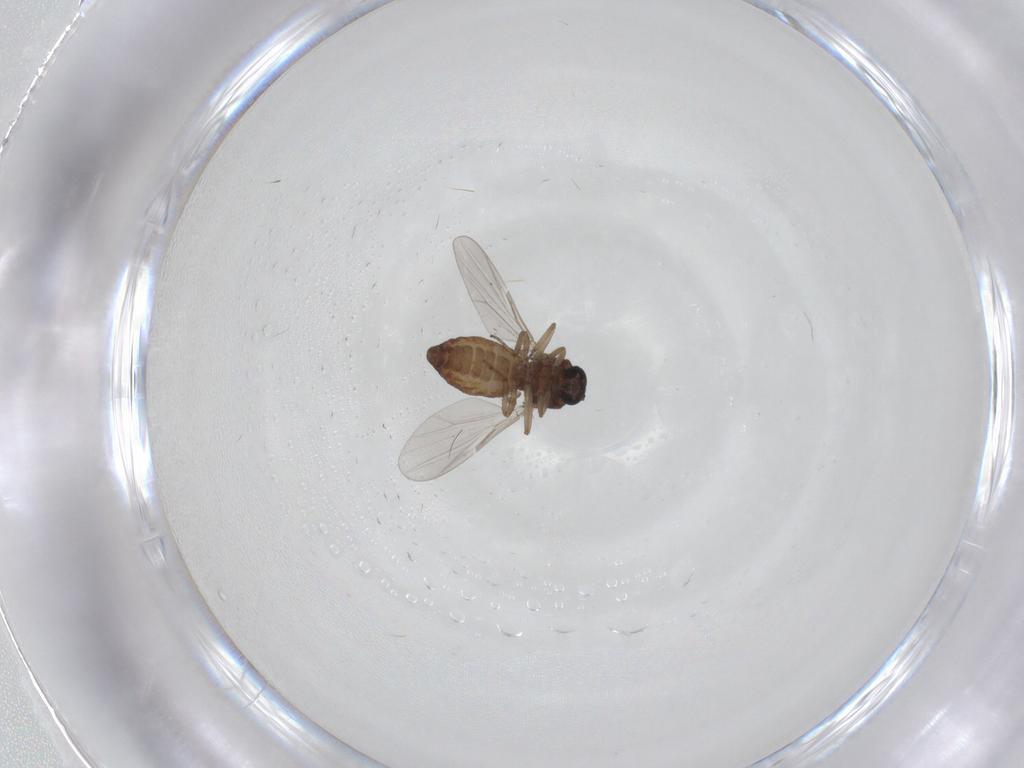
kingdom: Animalia
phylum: Arthropoda
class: Insecta
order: Diptera
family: Ceratopogonidae
